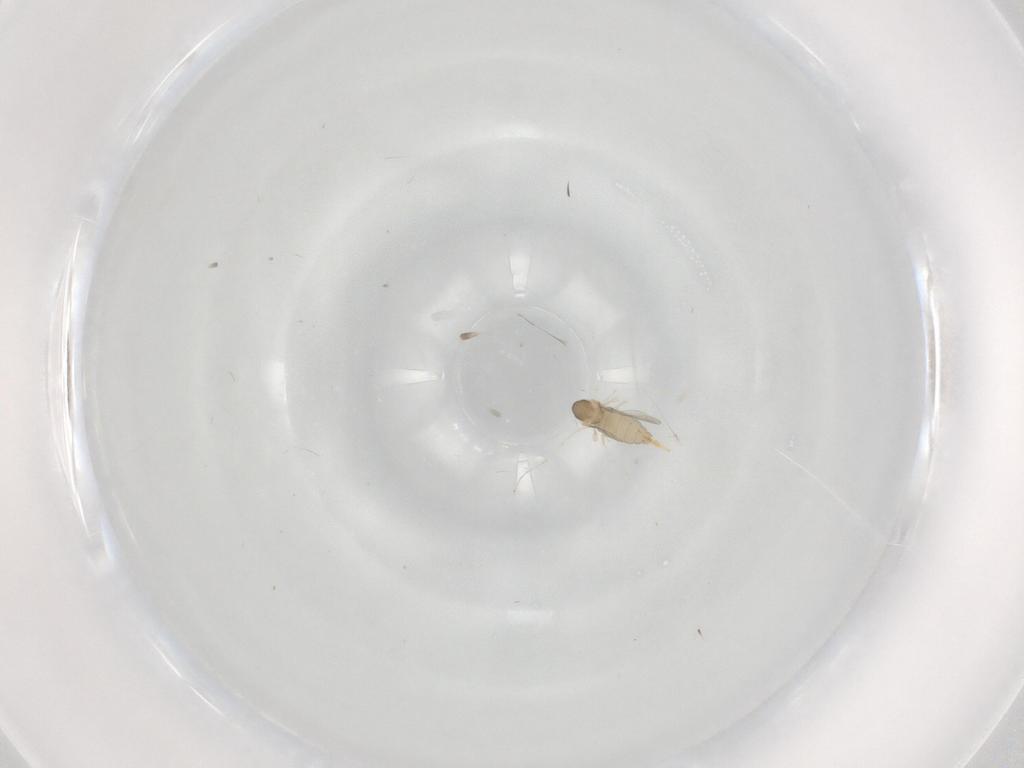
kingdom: Animalia
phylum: Arthropoda
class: Insecta
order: Diptera
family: Cecidomyiidae
